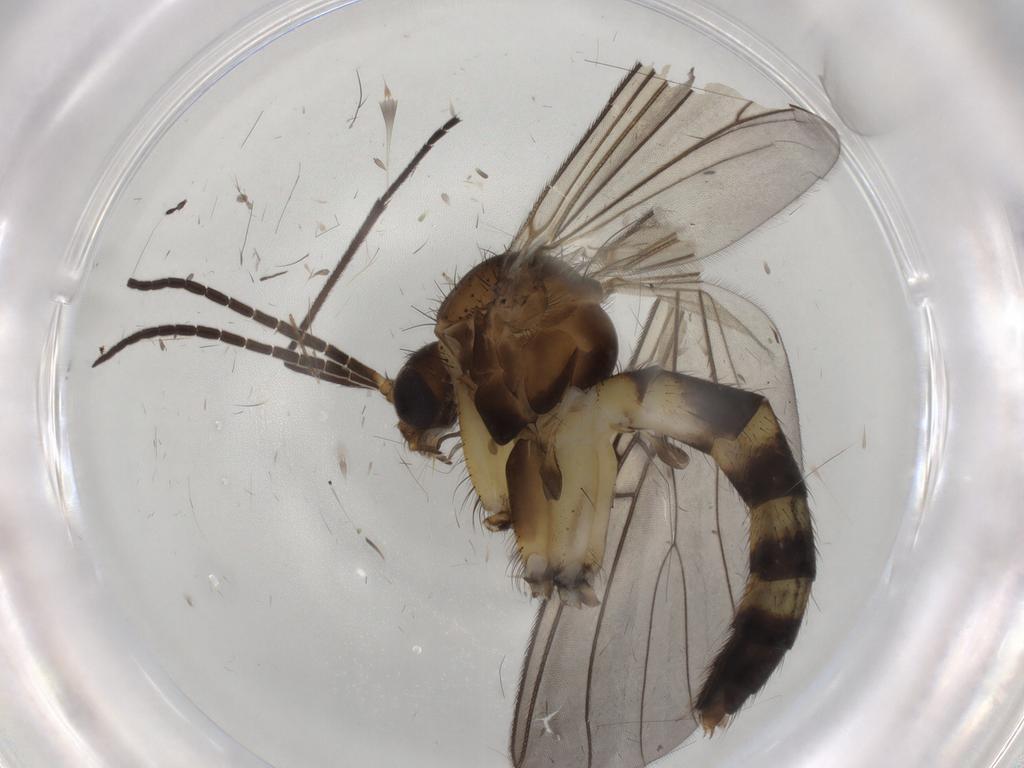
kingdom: Animalia
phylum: Arthropoda
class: Insecta
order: Diptera
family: Mycetophilidae
